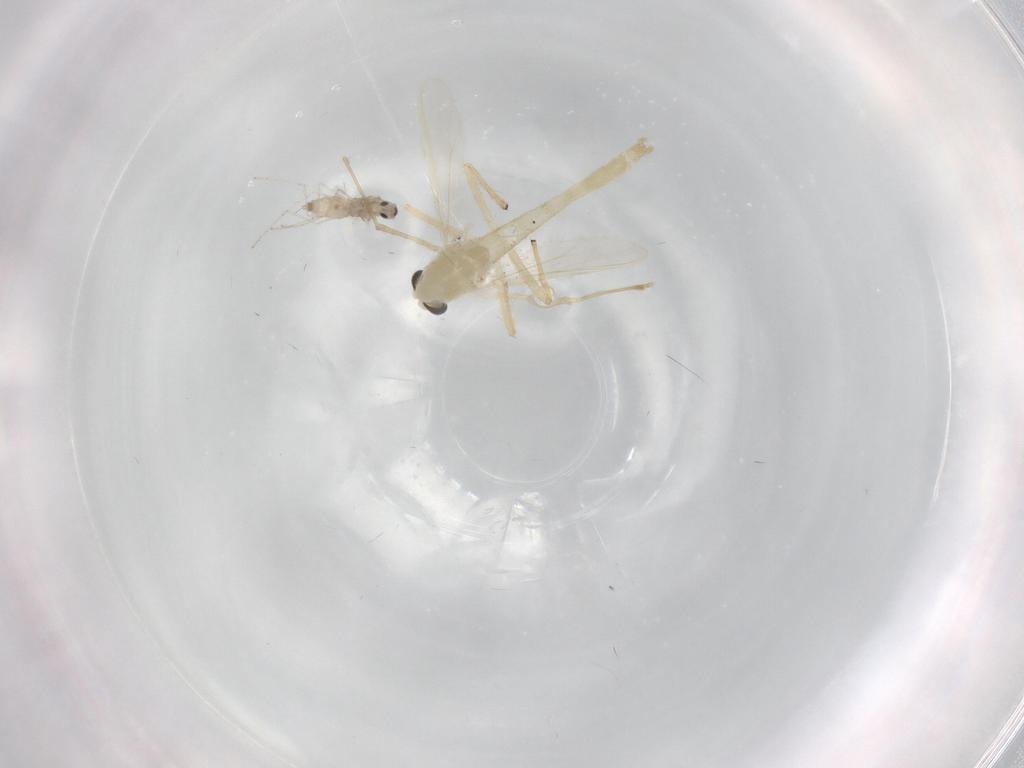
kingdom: Animalia
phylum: Arthropoda
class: Insecta
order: Diptera
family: Cecidomyiidae
